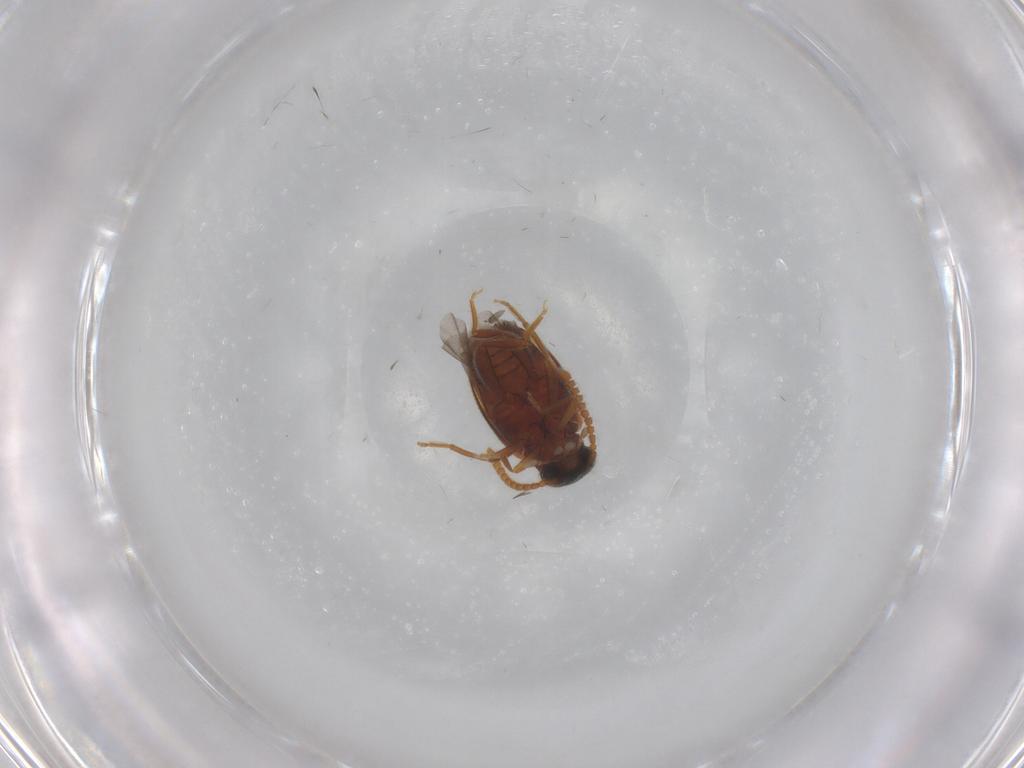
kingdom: Animalia
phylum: Arthropoda
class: Insecta
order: Coleoptera
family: Aderidae
